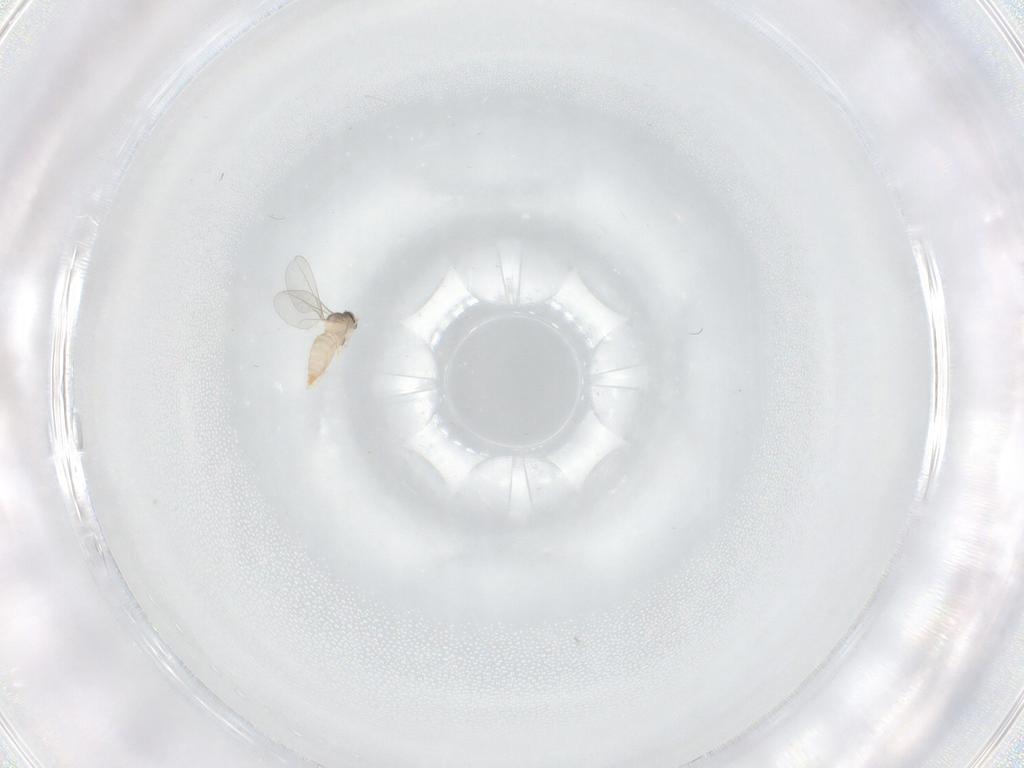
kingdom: Animalia
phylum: Arthropoda
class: Insecta
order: Diptera
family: Cecidomyiidae
